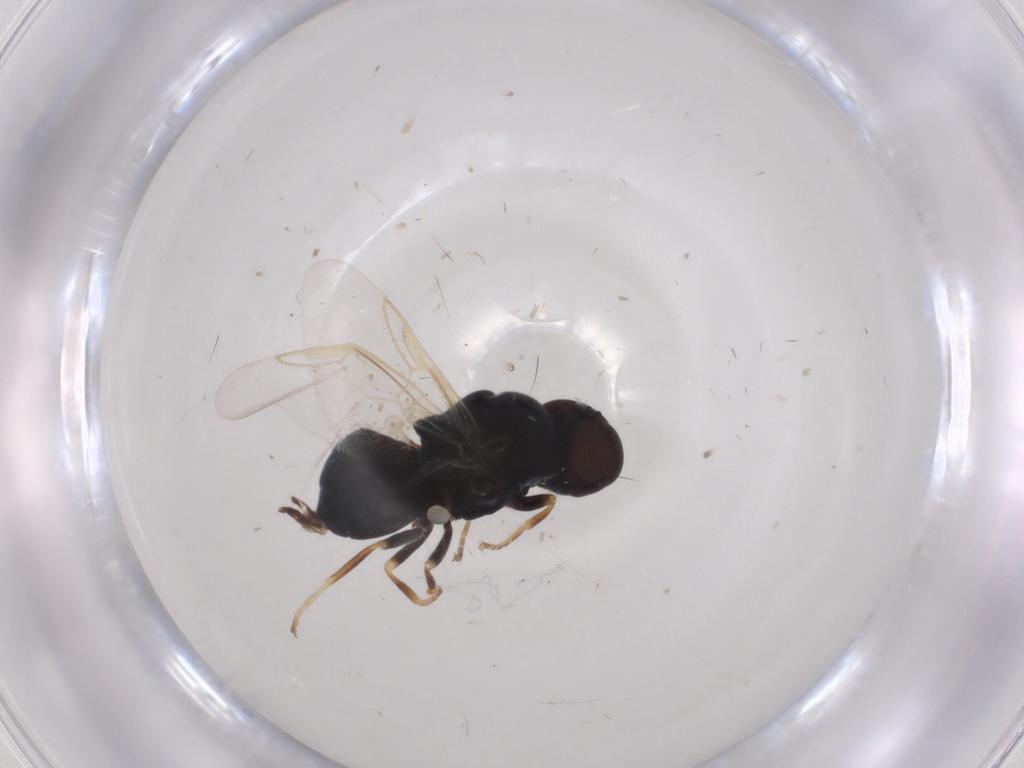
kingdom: Animalia
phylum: Arthropoda
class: Insecta
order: Diptera
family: Stratiomyidae
